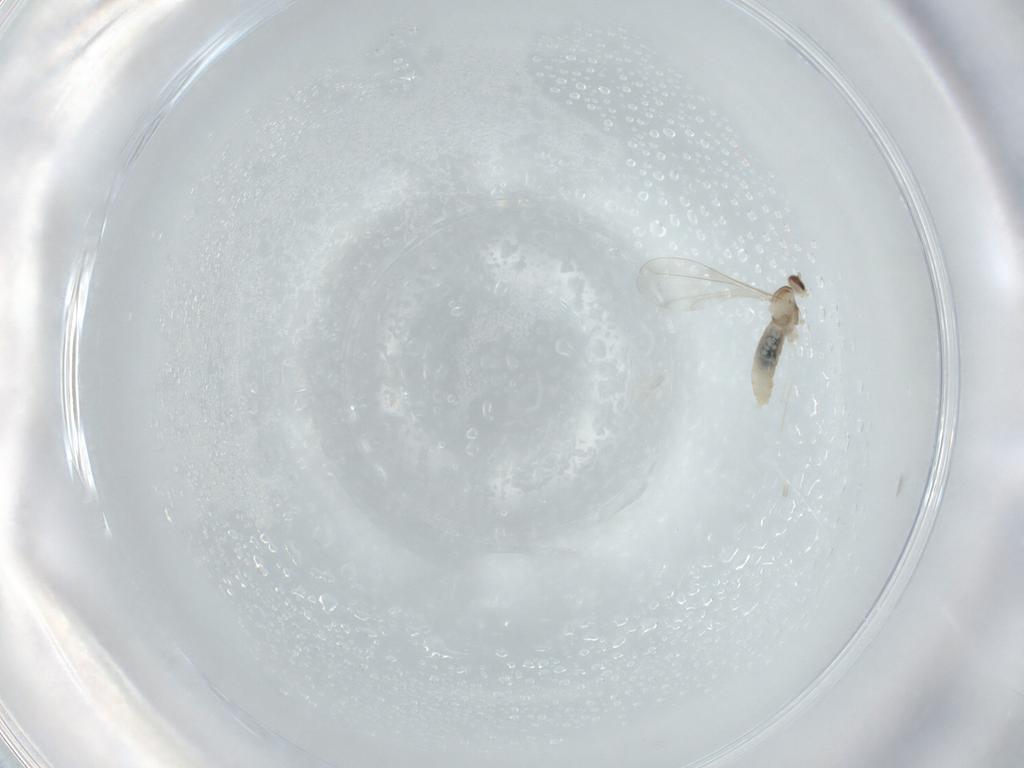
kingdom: Animalia
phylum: Arthropoda
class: Insecta
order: Diptera
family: Cecidomyiidae
